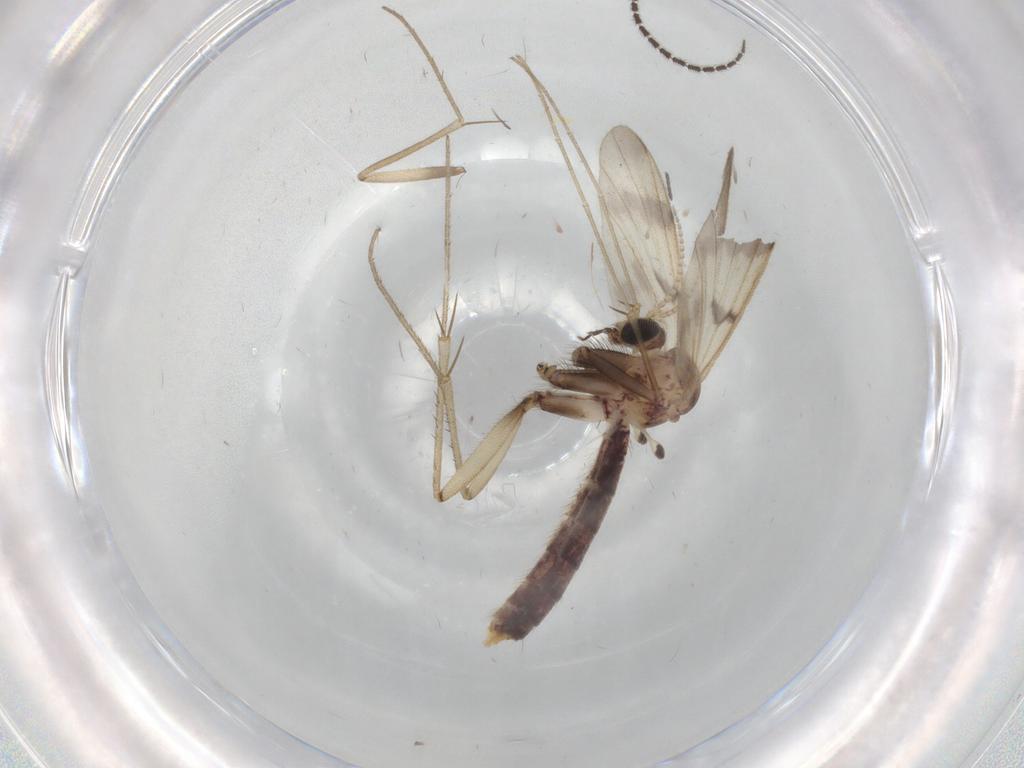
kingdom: Animalia
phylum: Arthropoda
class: Insecta
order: Diptera
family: Mycetophilidae
